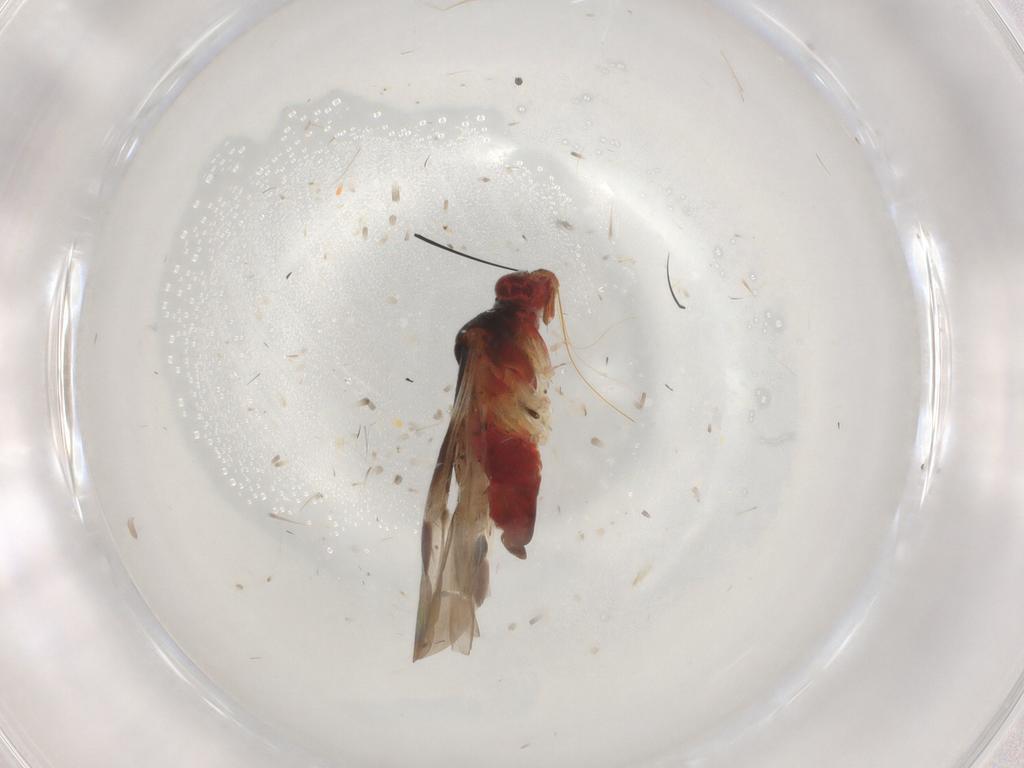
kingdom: Animalia
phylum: Arthropoda
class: Insecta
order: Hemiptera
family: Miridae
